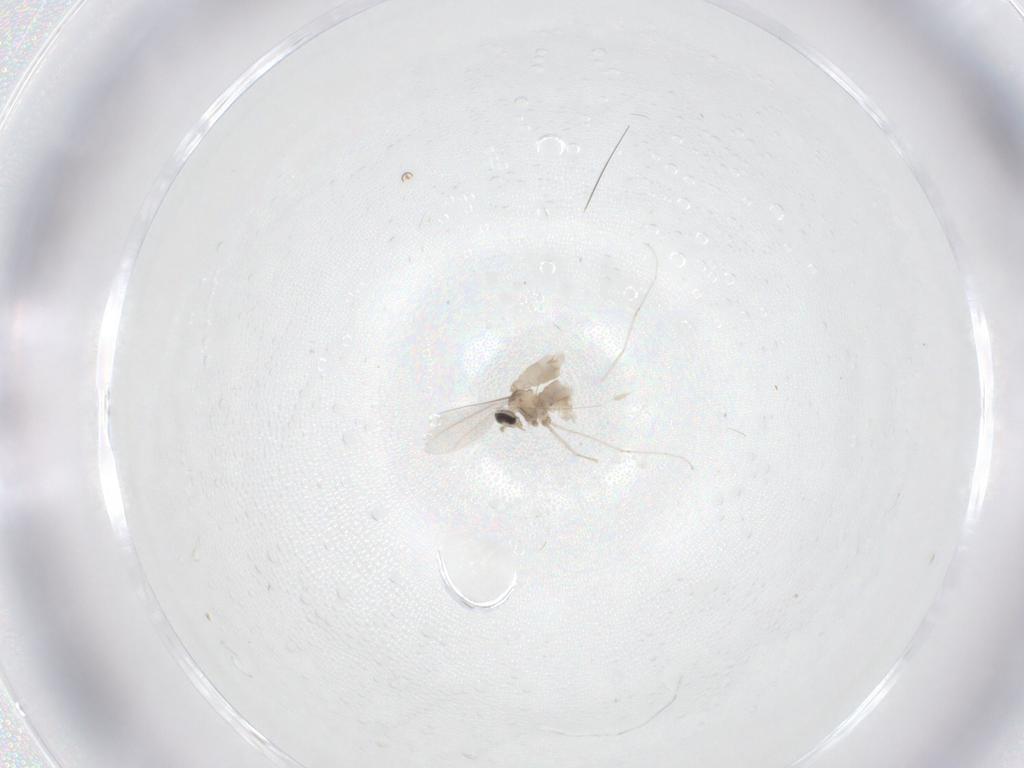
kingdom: Animalia
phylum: Arthropoda
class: Insecta
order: Diptera
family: Cecidomyiidae
